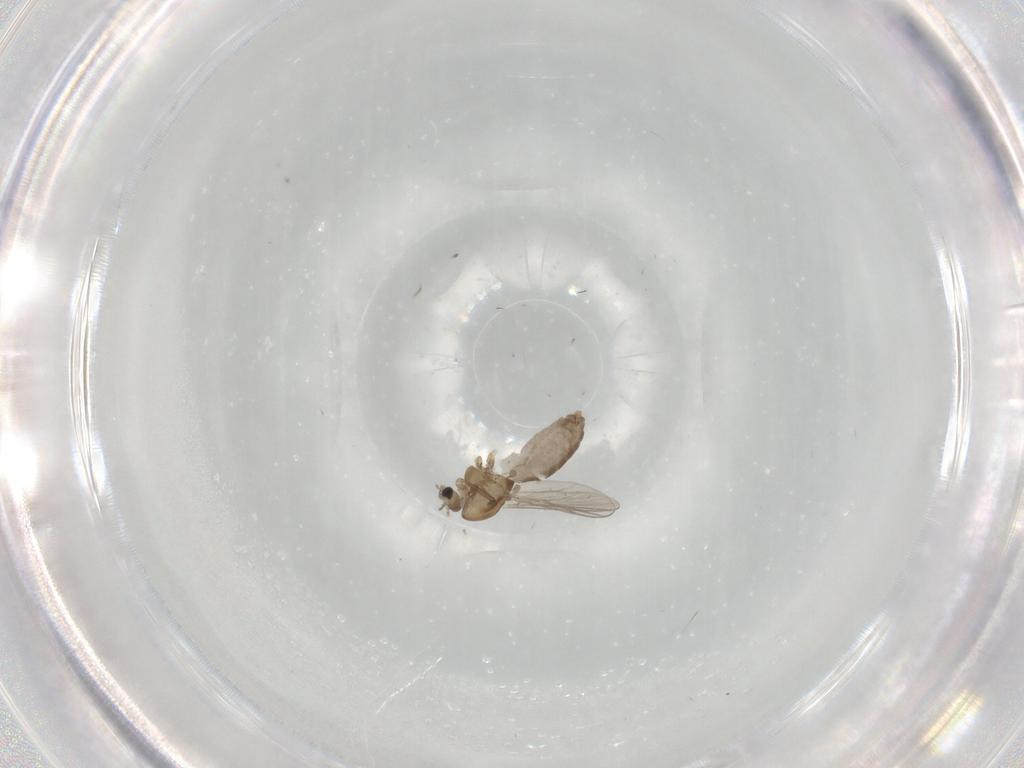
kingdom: Animalia
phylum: Arthropoda
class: Insecta
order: Diptera
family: Chironomidae
